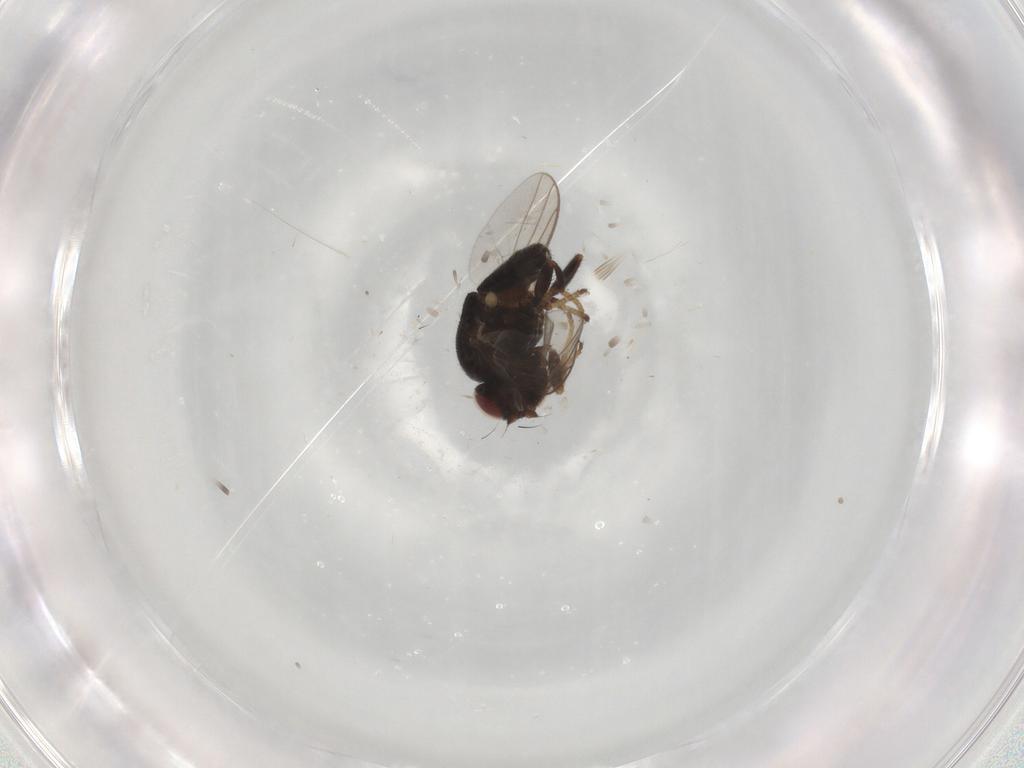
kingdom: Animalia
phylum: Arthropoda
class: Insecta
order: Diptera
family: Chloropidae
